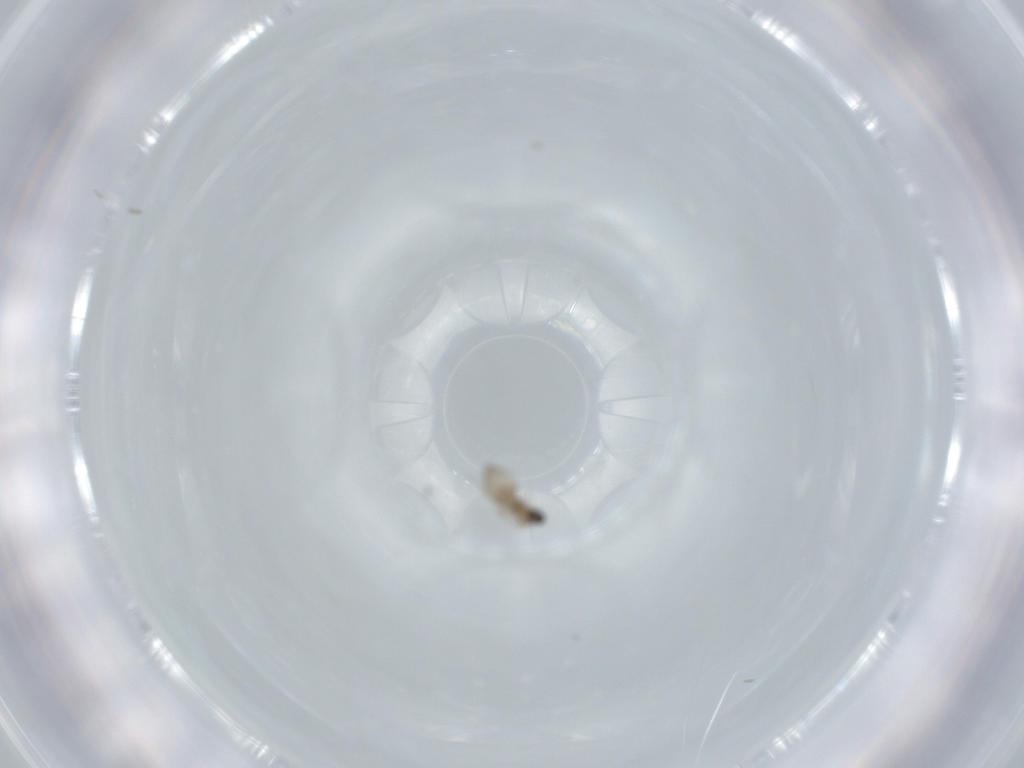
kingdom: Animalia
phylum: Arthropoda
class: Insecta
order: Diptera
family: Cecidomyiidae
